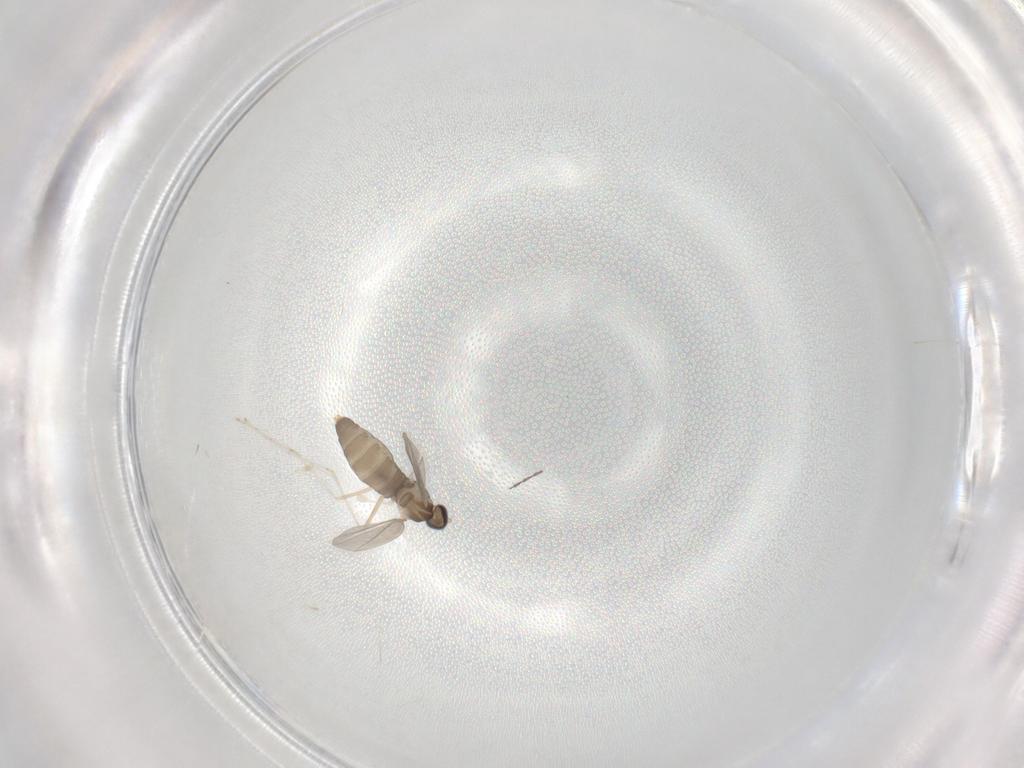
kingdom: Animalia
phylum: Arthropoda
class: Insecta
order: Diptera
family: Cecidomyiidae
